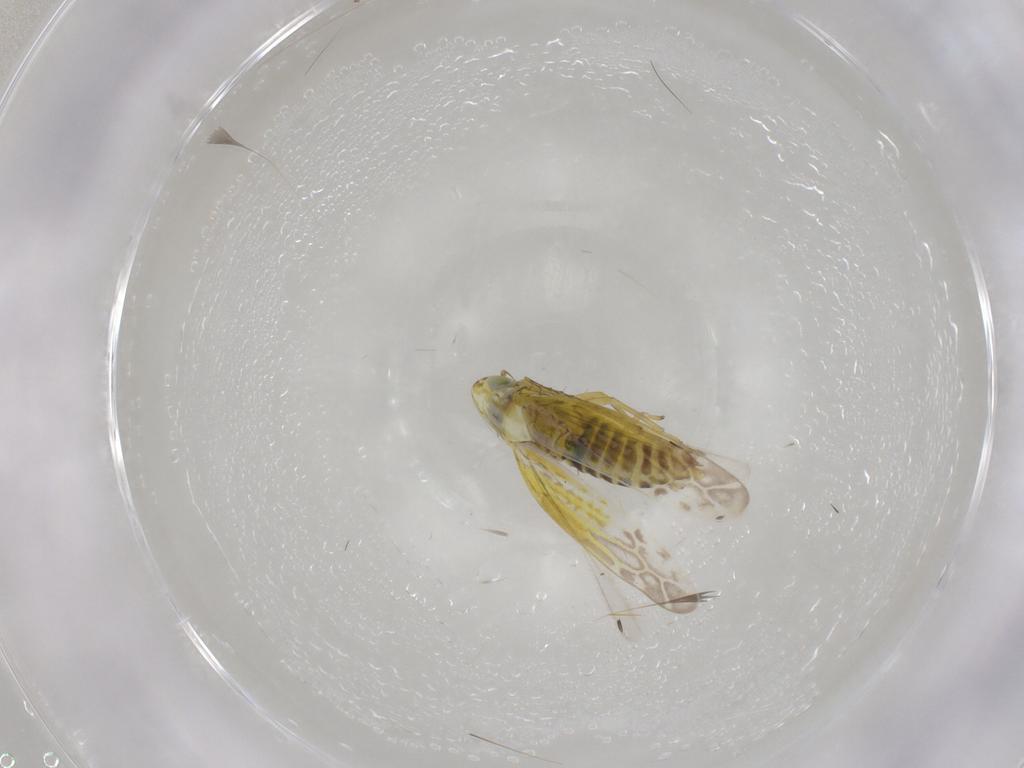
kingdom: Animalia
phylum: Arthropoda
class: Insecta
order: Hemiptera
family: Cicadellidae
